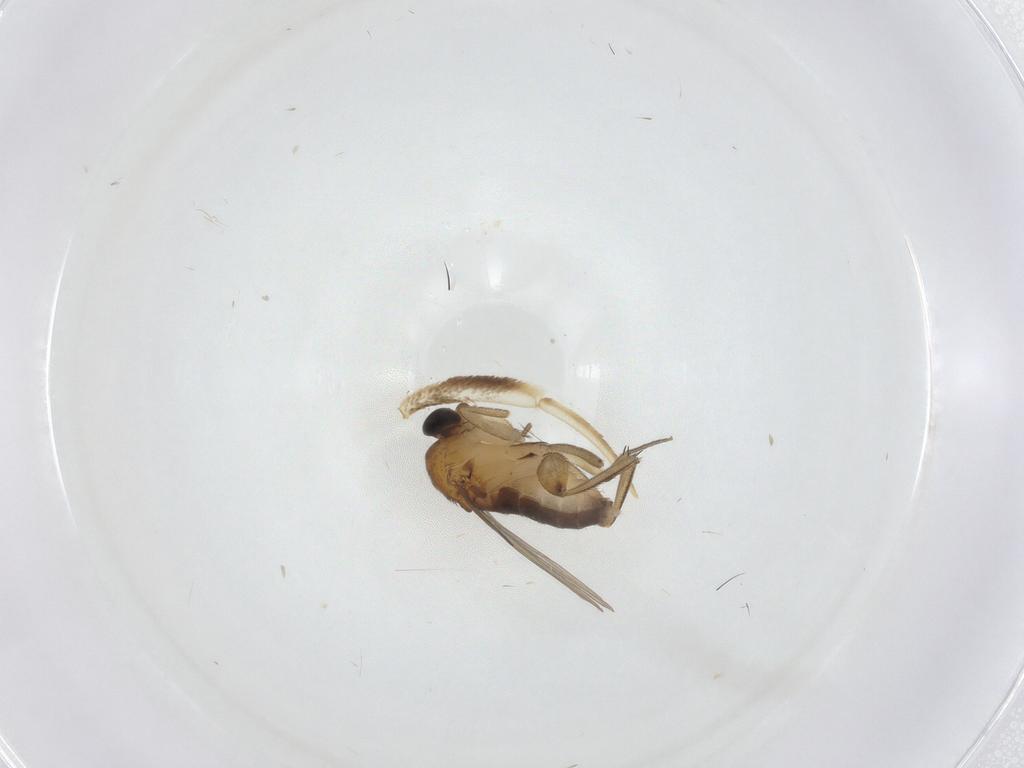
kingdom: Animalia
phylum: Arthropoda
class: Insecta
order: Diptera
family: Phoridae
